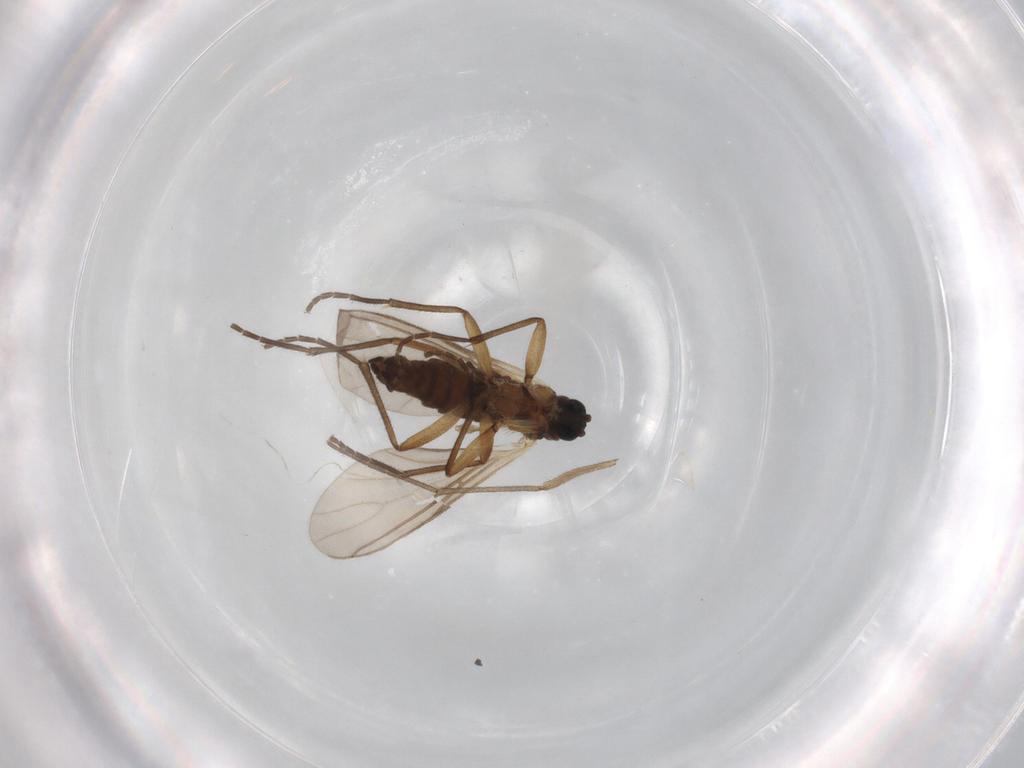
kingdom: Animalia
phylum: Arthropoda
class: Insecta
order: Diptera
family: Sciaridae
